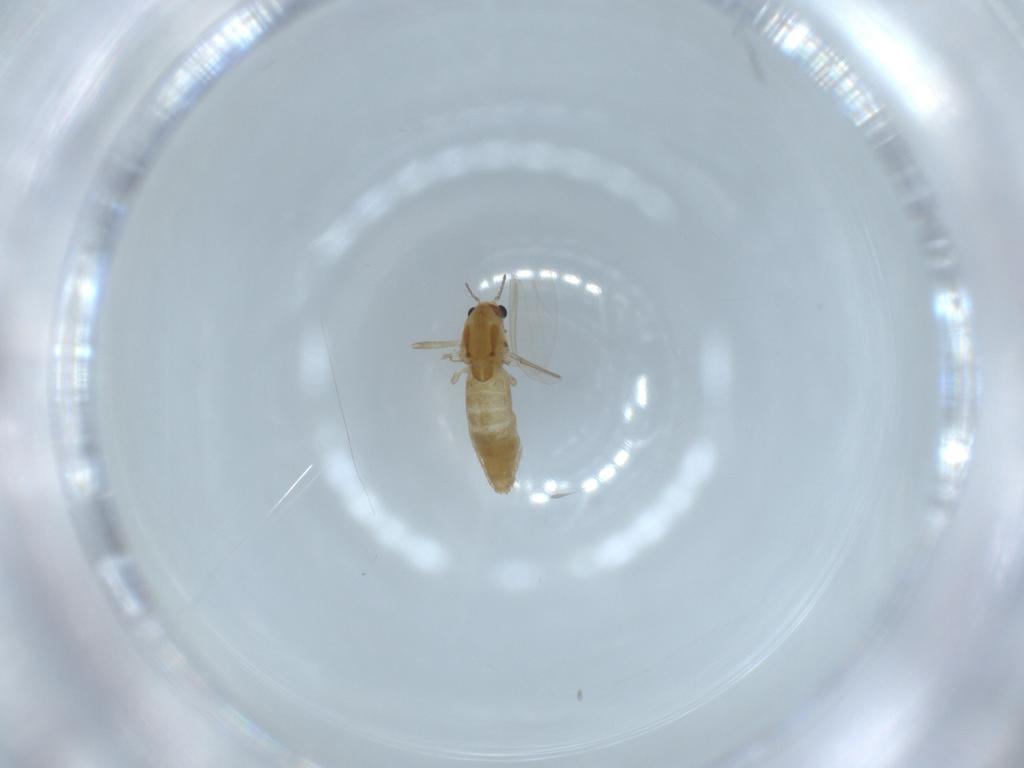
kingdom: Animalia
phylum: Arthropoda
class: Insecta
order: Diptera
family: Chironomidae
